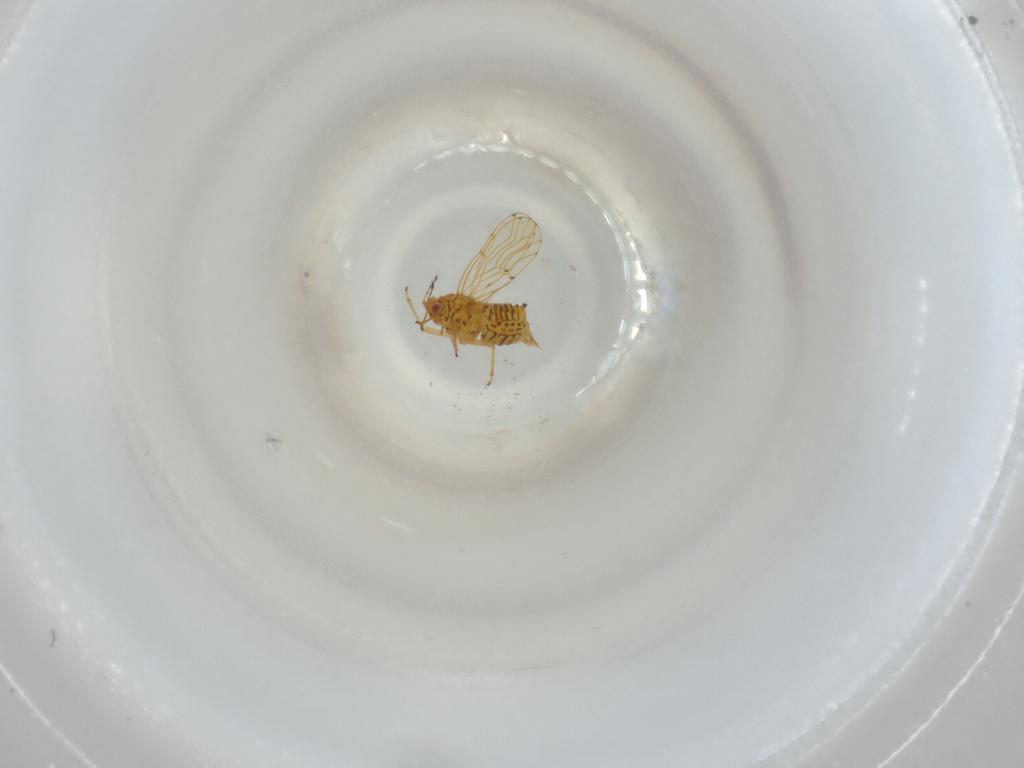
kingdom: Animalia
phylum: Arthropoda
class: Insecta
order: Embioptera
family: Oligotomidae
